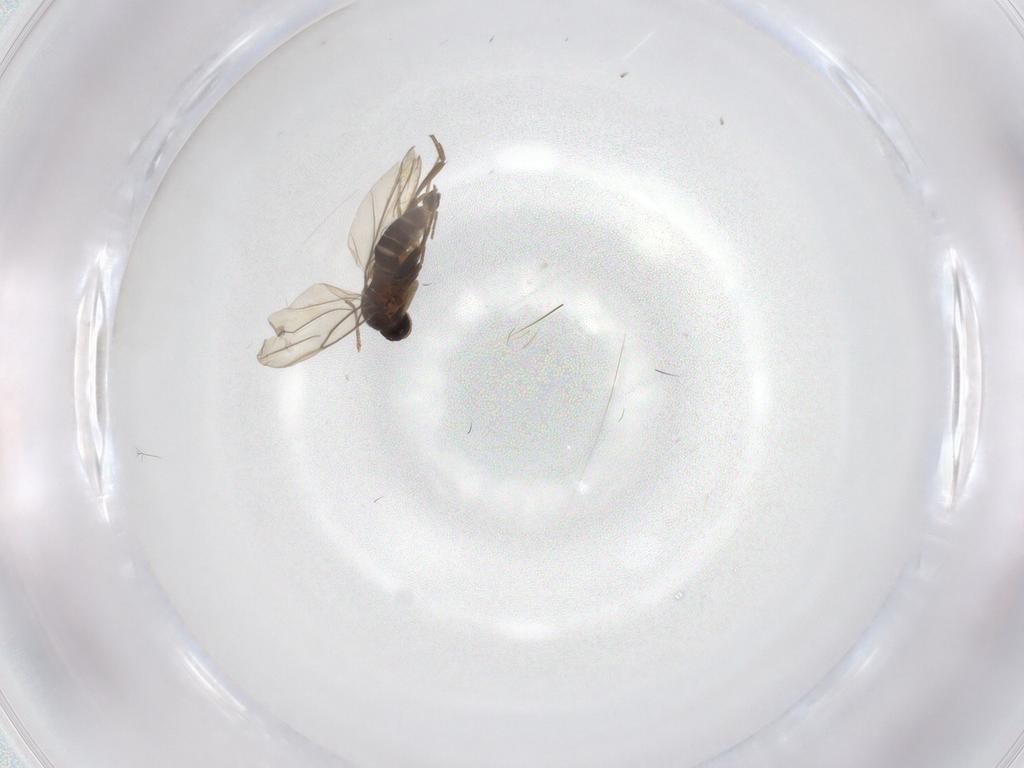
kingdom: Animalia
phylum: Arthropoda
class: Insecta
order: Diptera
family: Dolichopodidae
